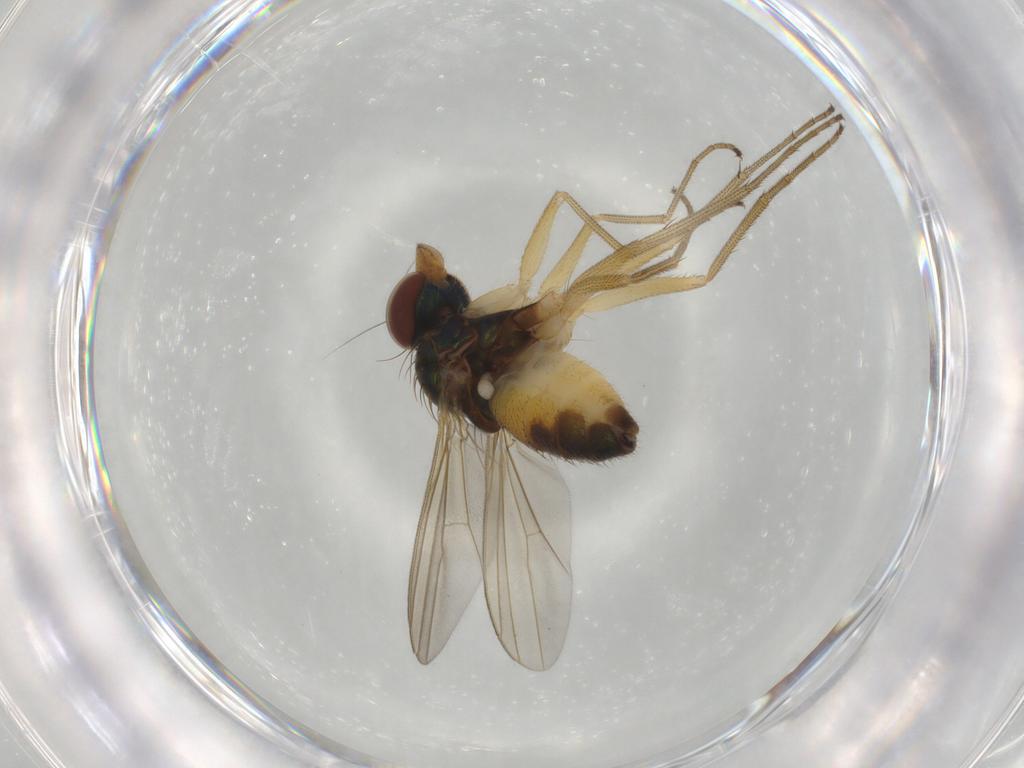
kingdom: Animalia
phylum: Arthropoda
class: Insecta
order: Diptera
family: Dolichopodidae
